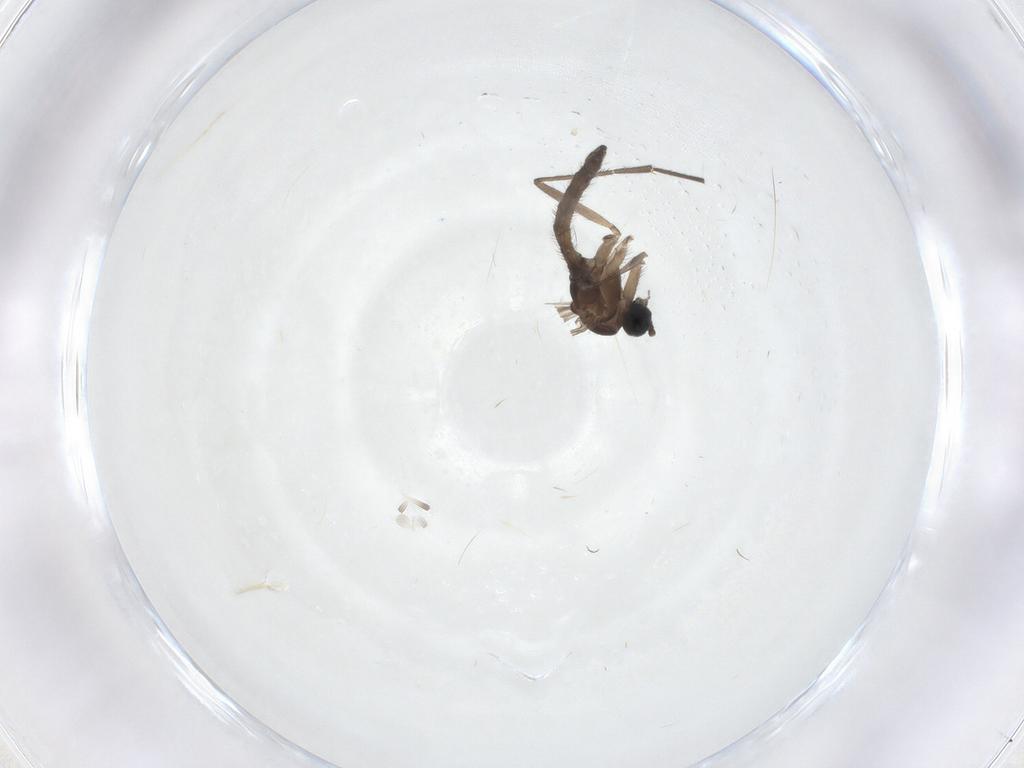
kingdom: Animalia
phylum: Arthropoda
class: Insecta
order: Diptera
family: Sciaridae
